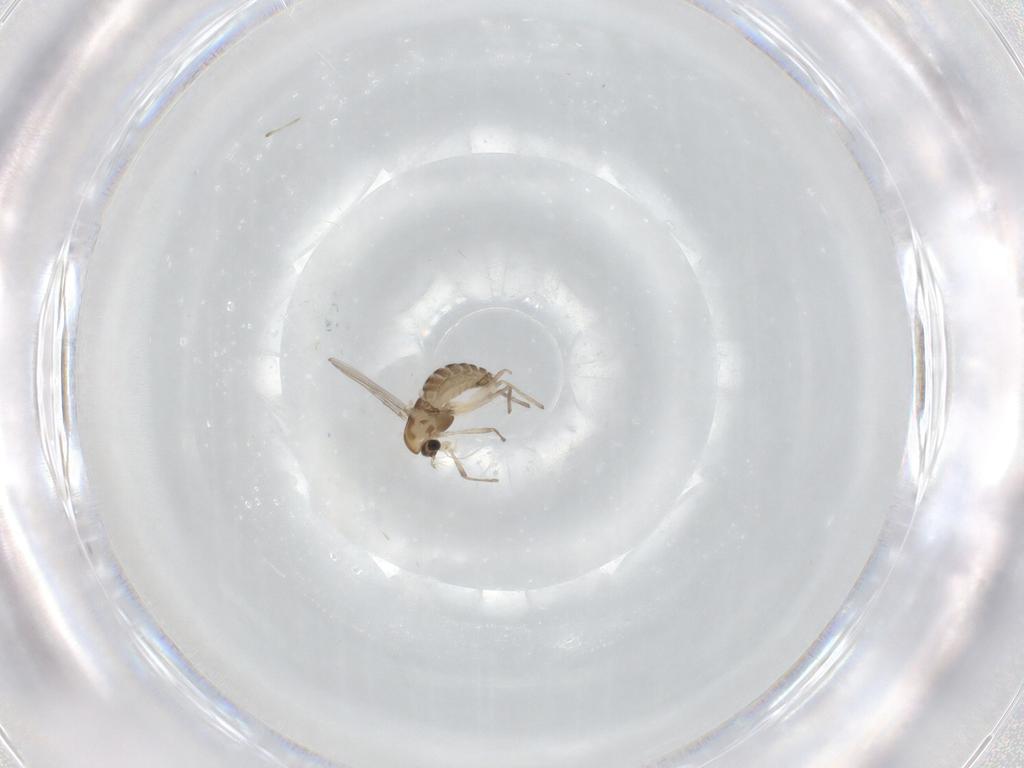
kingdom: Animalia
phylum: Arthropoda
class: Insecta
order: Diptera
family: Chironomidae
